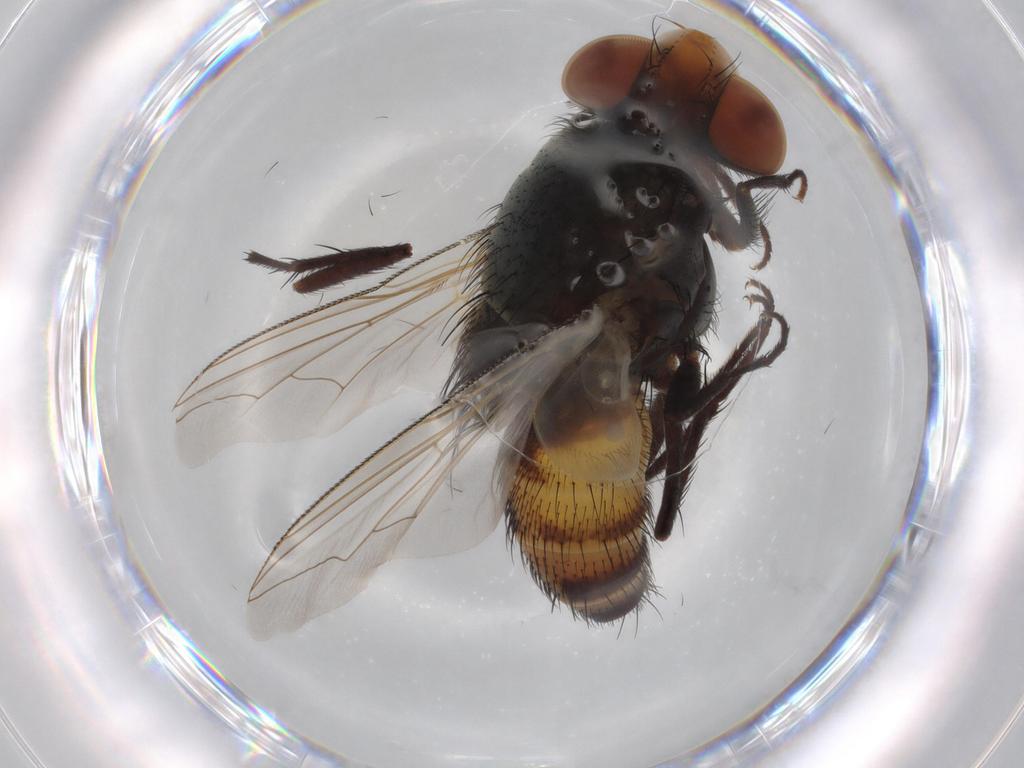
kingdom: Animalia
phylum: Arthropoda
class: Insecta
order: Diptera
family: Sarcophagidae
